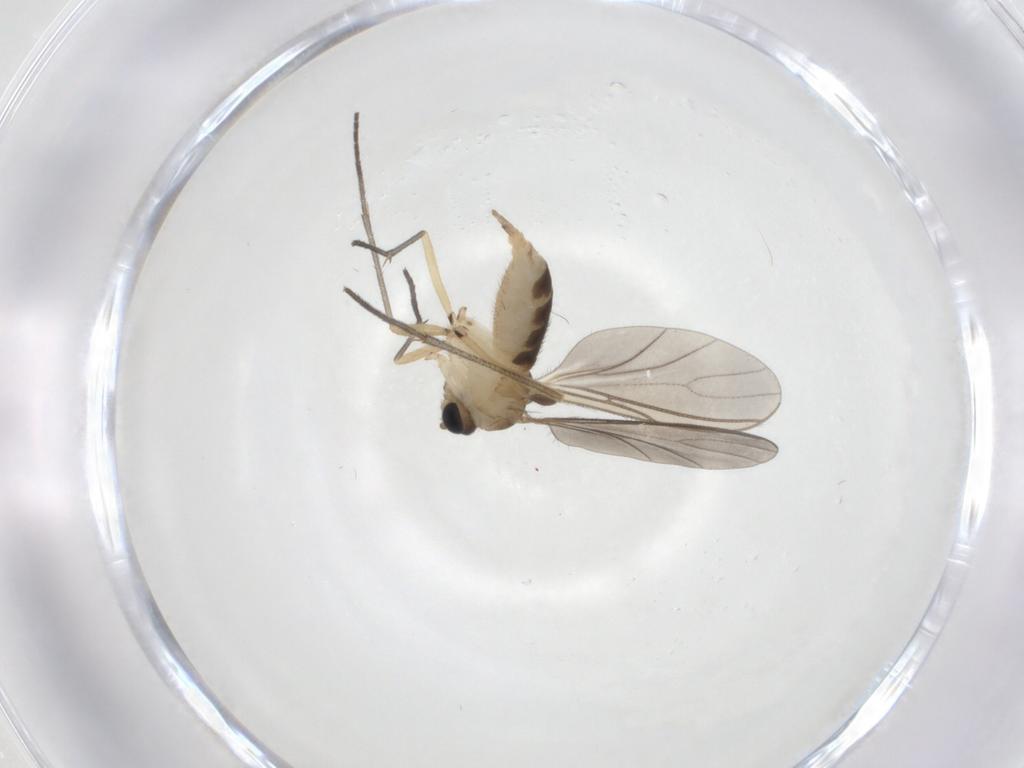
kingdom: Animalia
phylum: Arthropoda
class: Insecta
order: Diptera
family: Sciaridae
